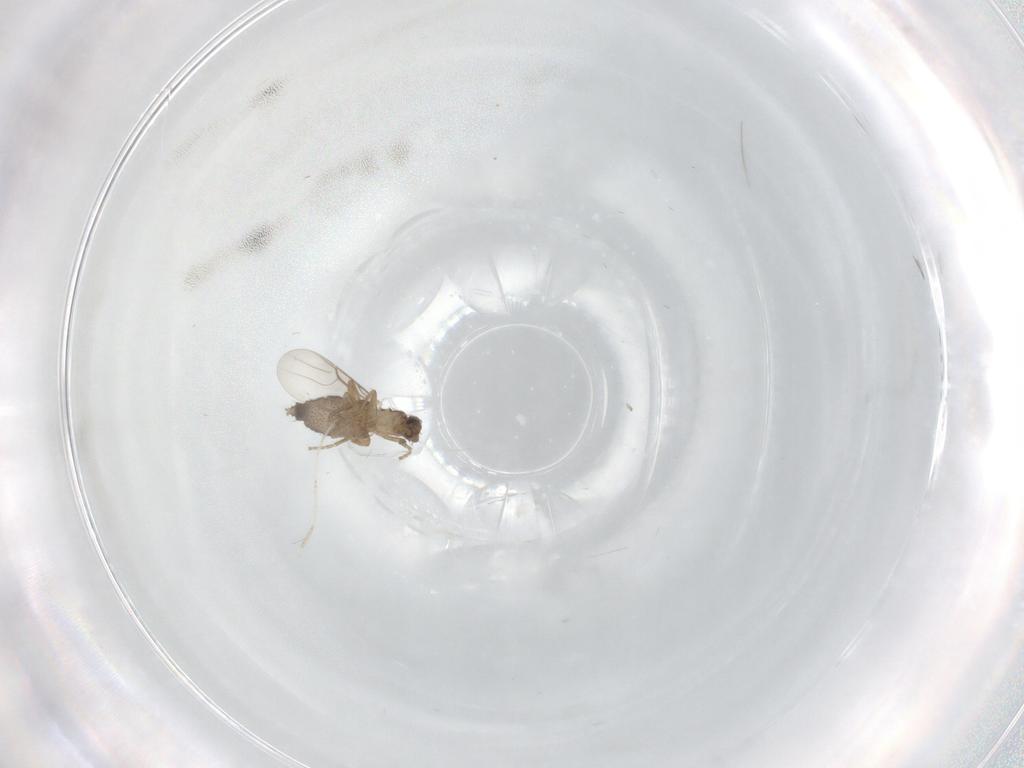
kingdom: Animalia
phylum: Arthropoda
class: Insecta
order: Diptera
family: Phoridae
